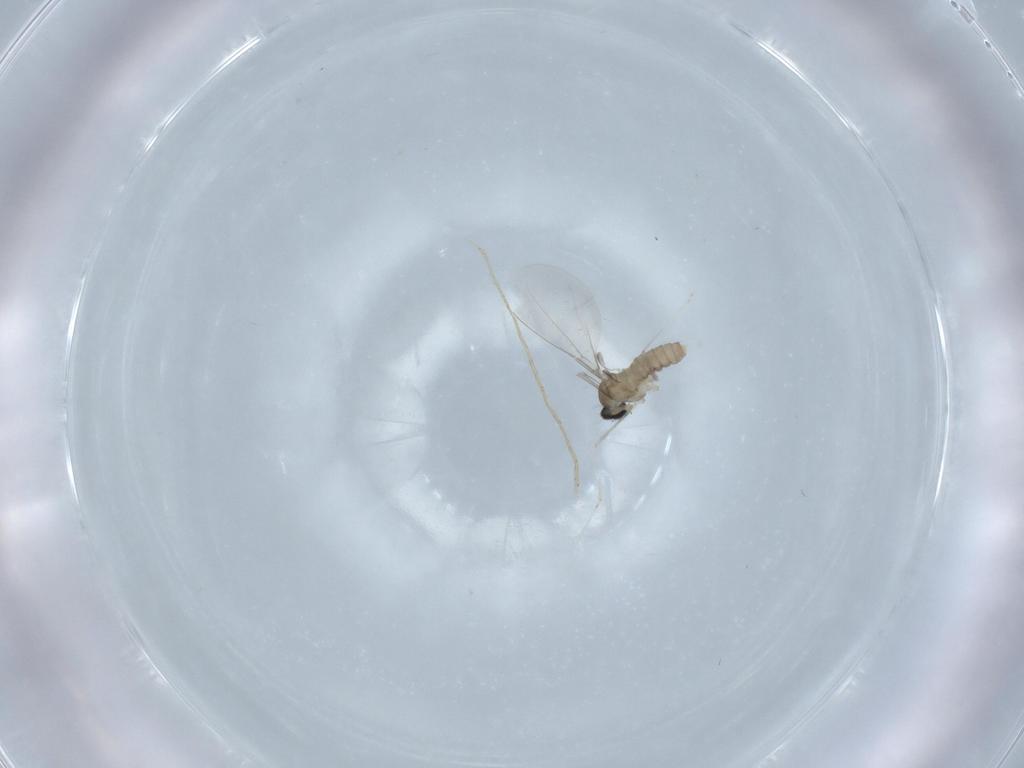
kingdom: Animalia
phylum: Arthropoda
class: Insecta
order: Diptera
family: Cecidomyiidae
